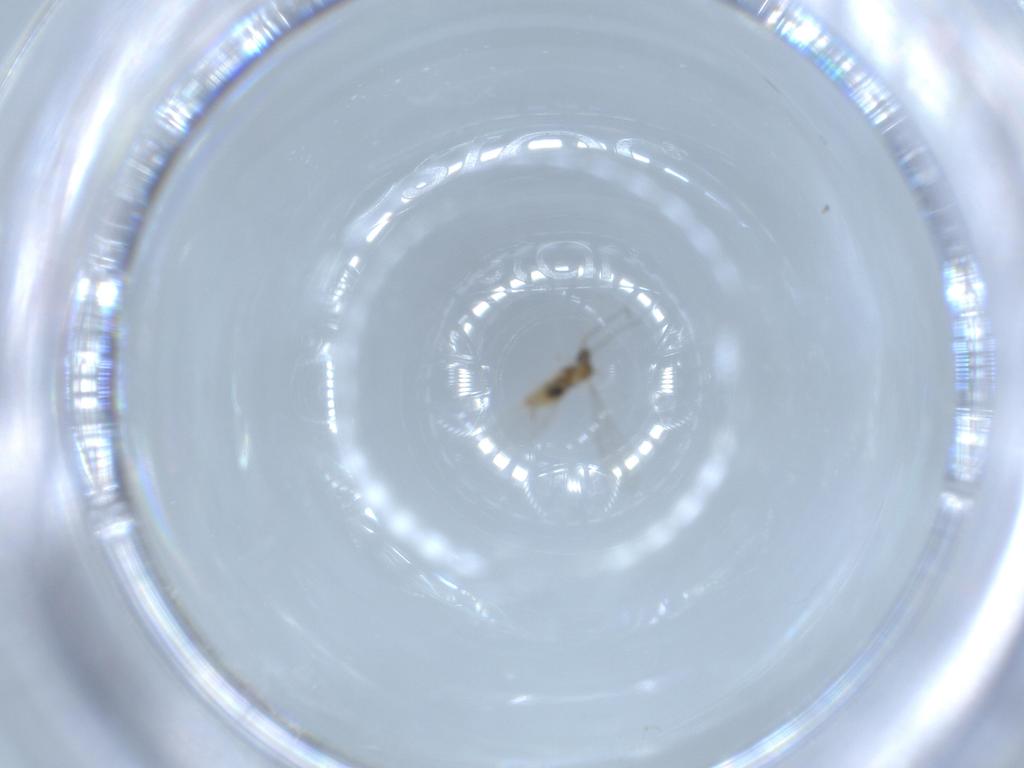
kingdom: Animalia
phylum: Arthropoda
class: Insecta
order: Diptera
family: Cecidomyiidae
